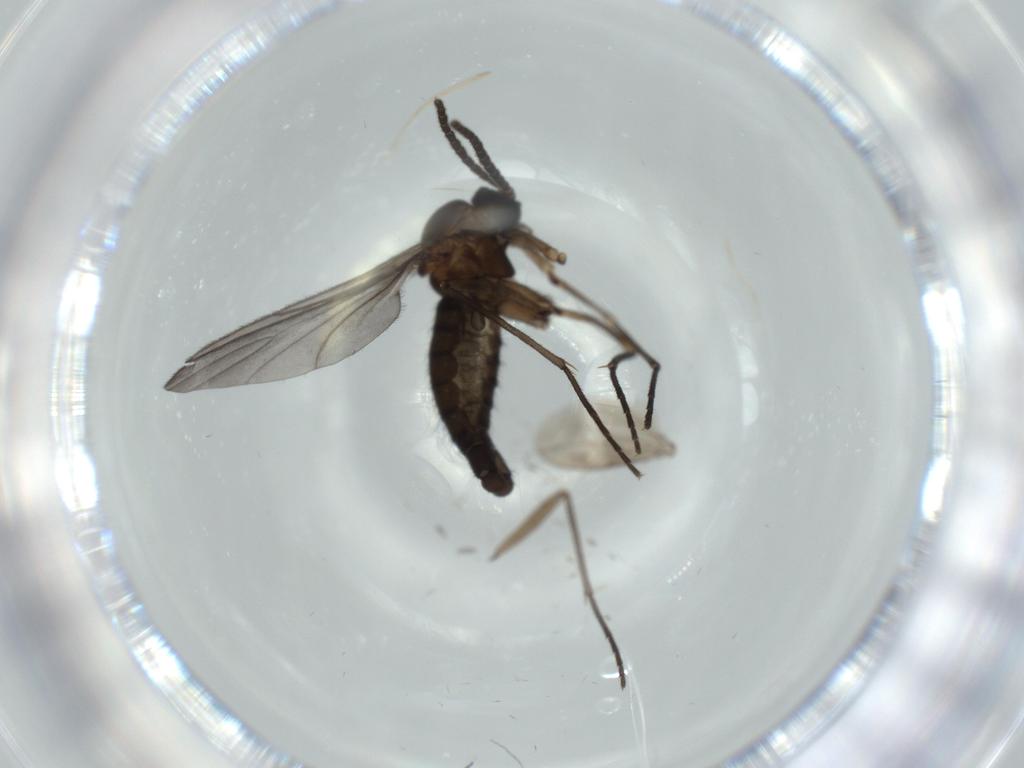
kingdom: Animalia
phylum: Arthropoda
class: Insecta
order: Diptera
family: Sciaridae
